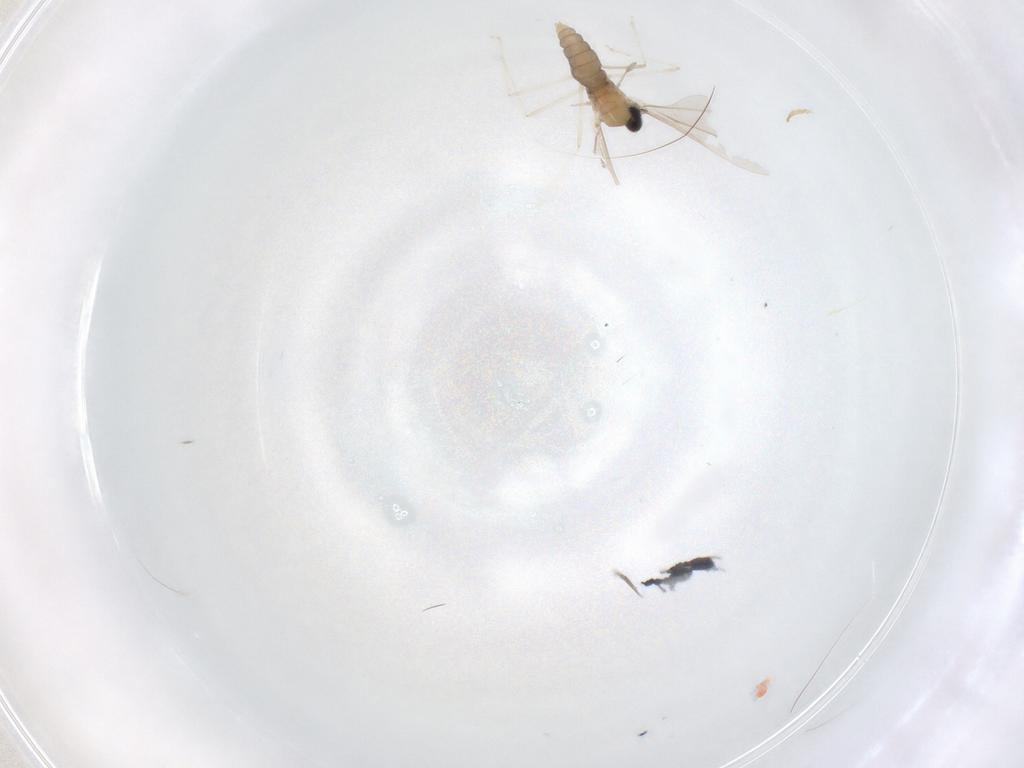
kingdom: Animalia
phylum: Arthropoda
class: Insecta
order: Diptera
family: Cecidomyiidae
